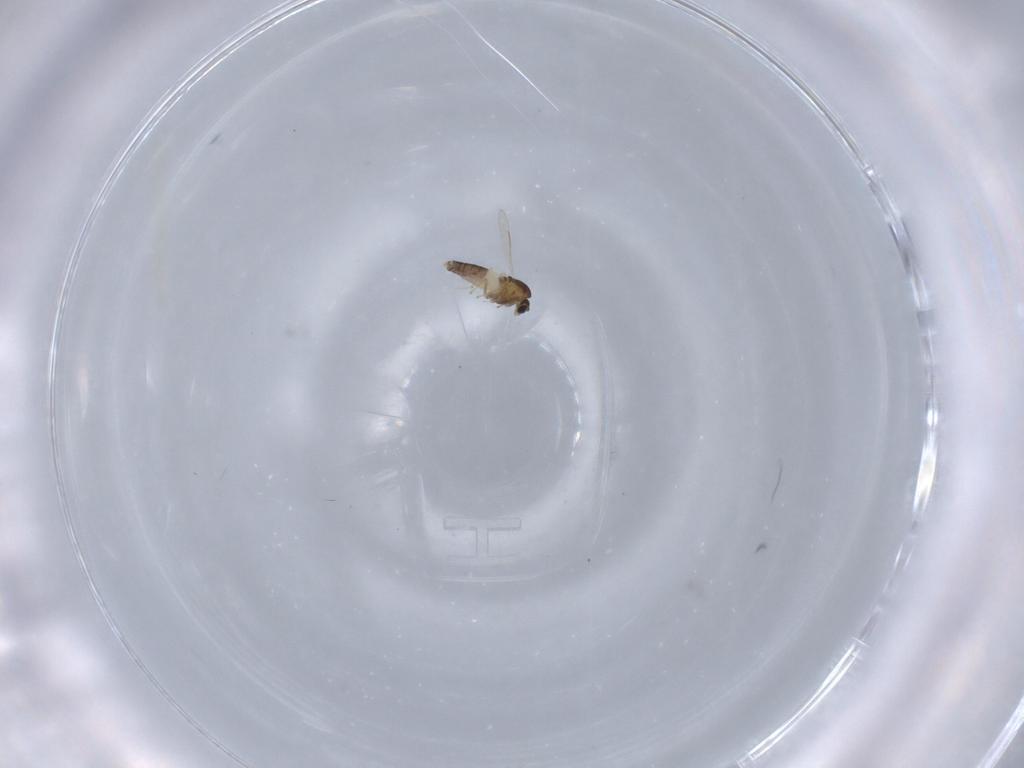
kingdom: Animalia
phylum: Arthropoda
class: Insecta
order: Diptera
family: Chironomidae
